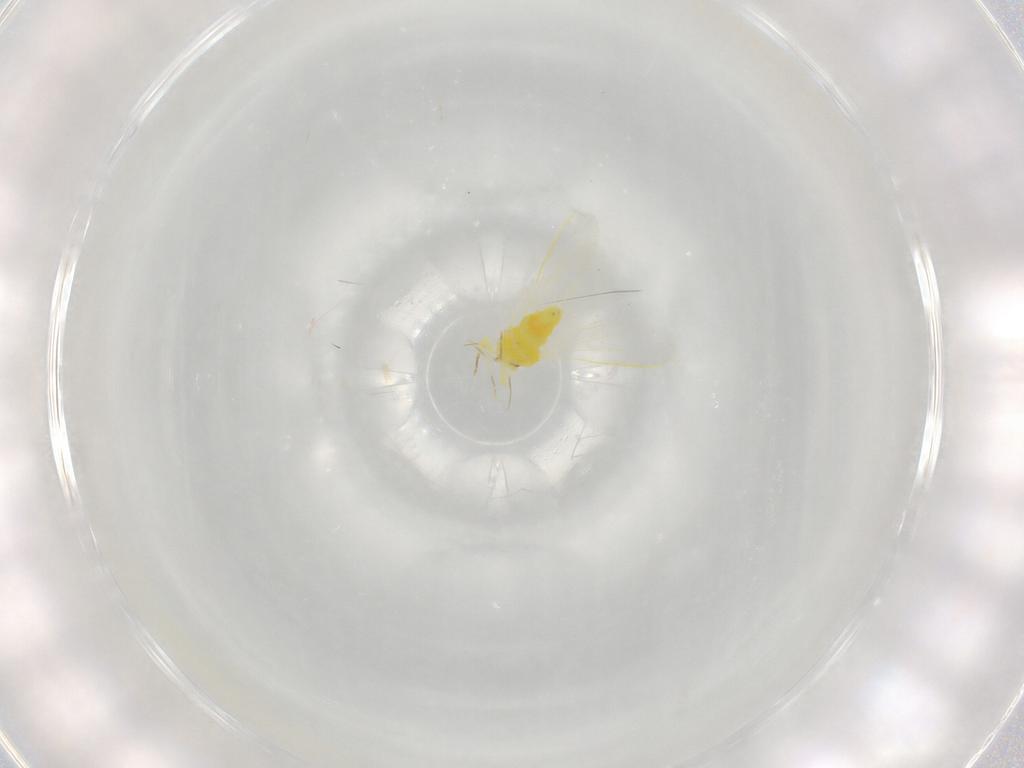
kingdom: Animalia
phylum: Arthropoda
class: Insecta
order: Hemiptera
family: Aleyrodidae
